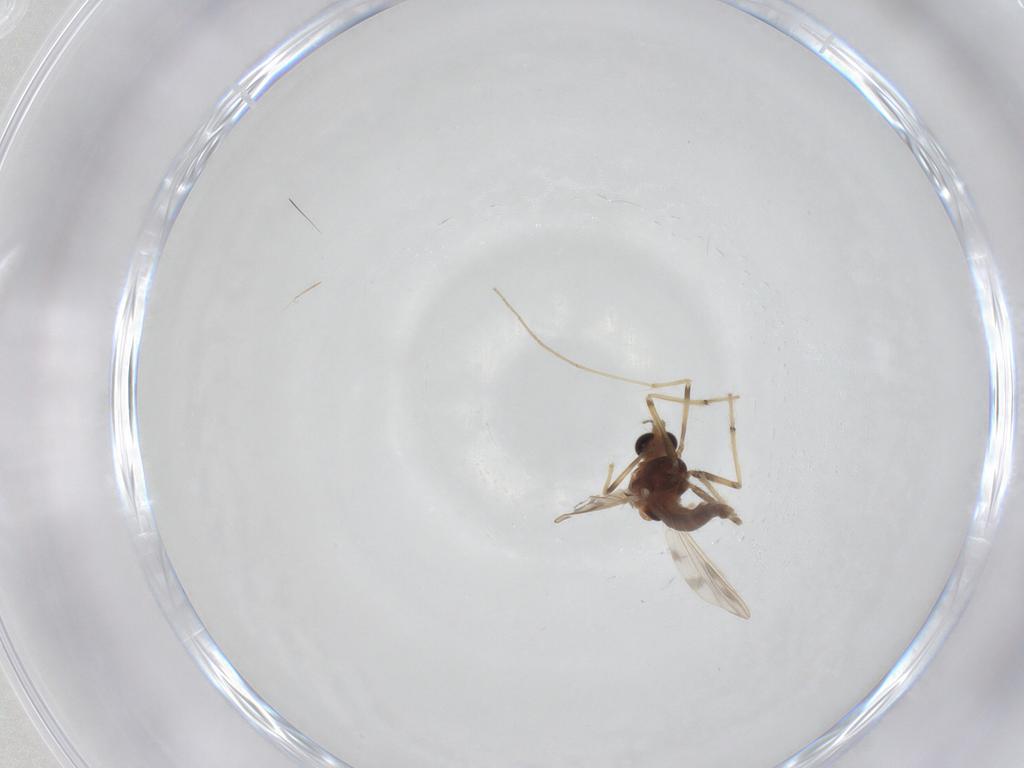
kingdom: Animalia
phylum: Arthropoda
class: Insecta
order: Diptera
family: Chironomidae
